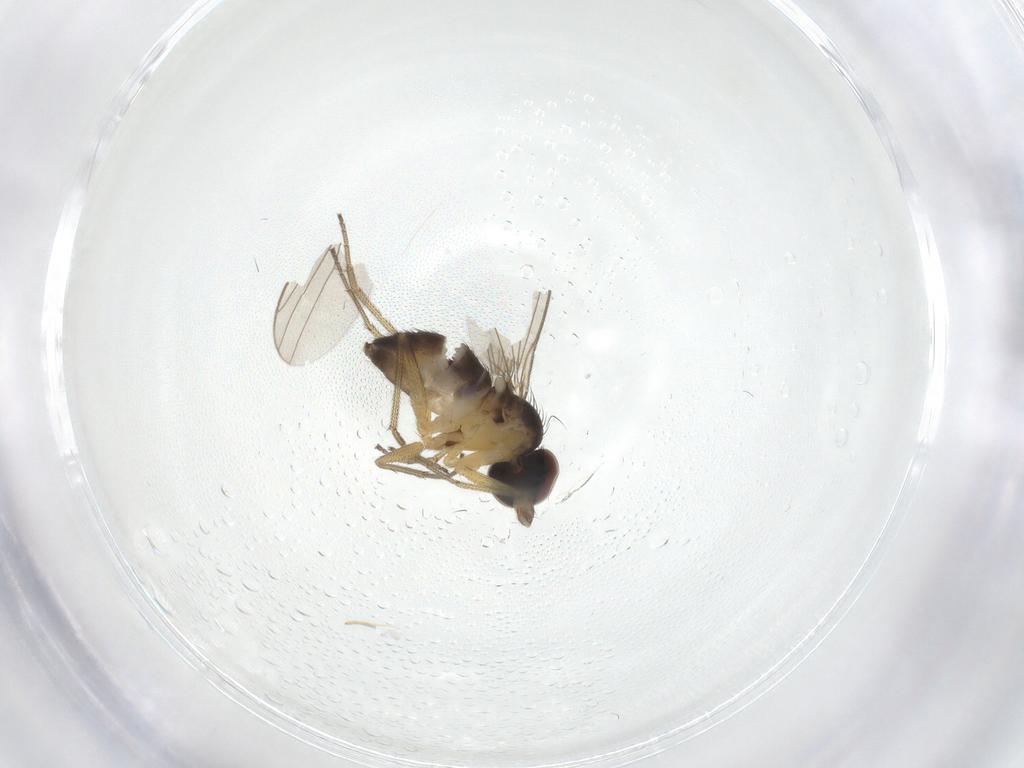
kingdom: Animalia
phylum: Arthropoda
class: Insecta
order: Diptera
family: Dolichopodidae
